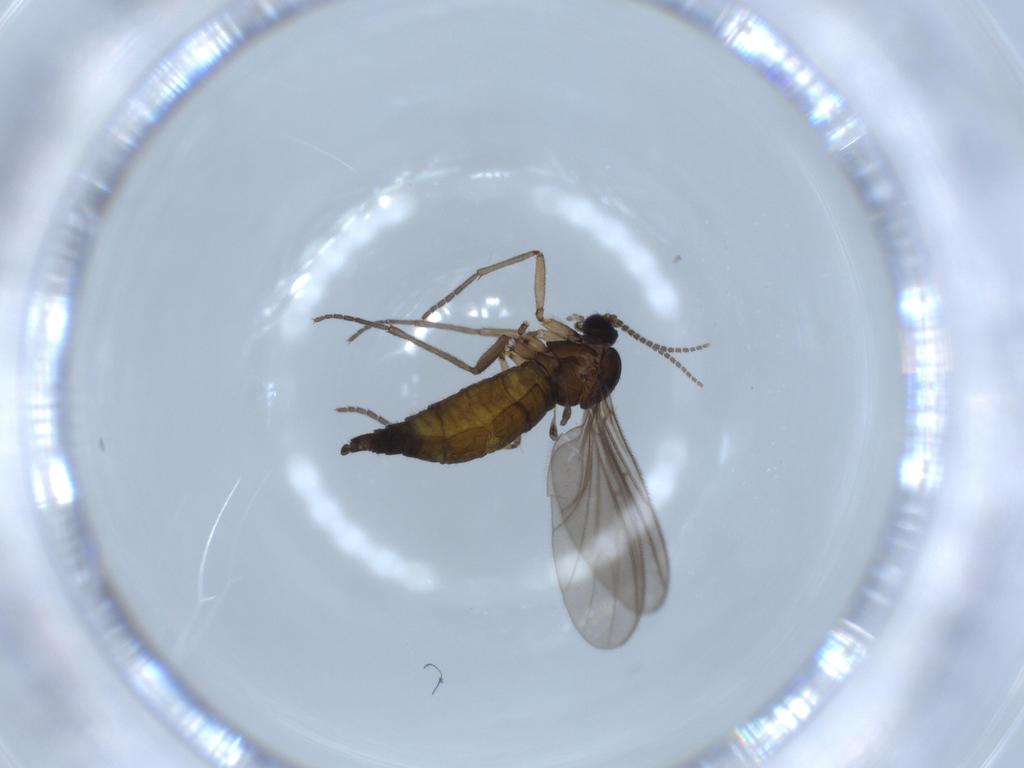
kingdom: Animalia
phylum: Arthropoda
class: Insecta
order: Diptera
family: Sciaridae
